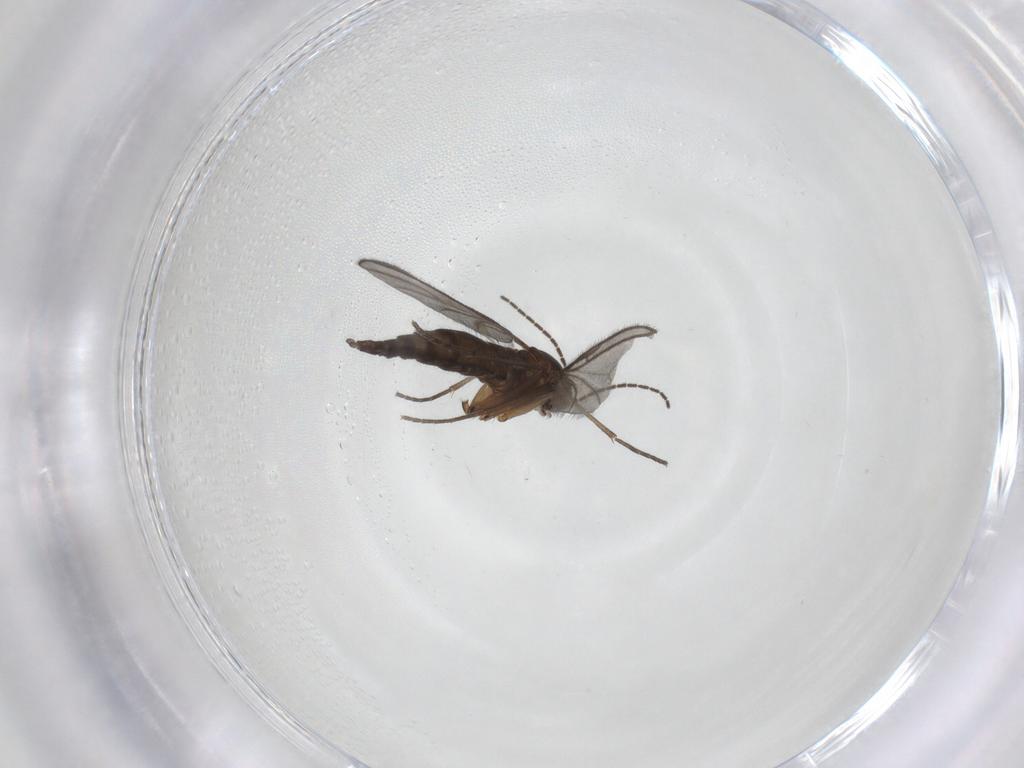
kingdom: Animalia
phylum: Arthropoda
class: Insecta
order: Diptera
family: Sciaridae
